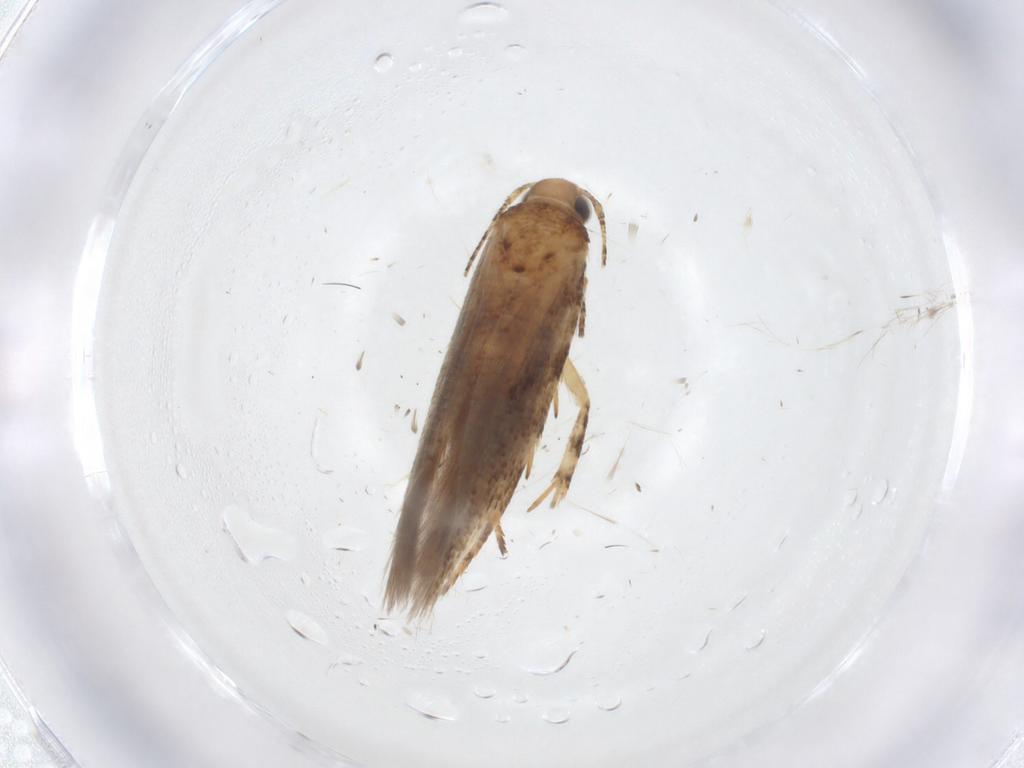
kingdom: Animalia
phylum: Arthropoda
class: Insecta
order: Lepidoptera
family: Gelechiidae
